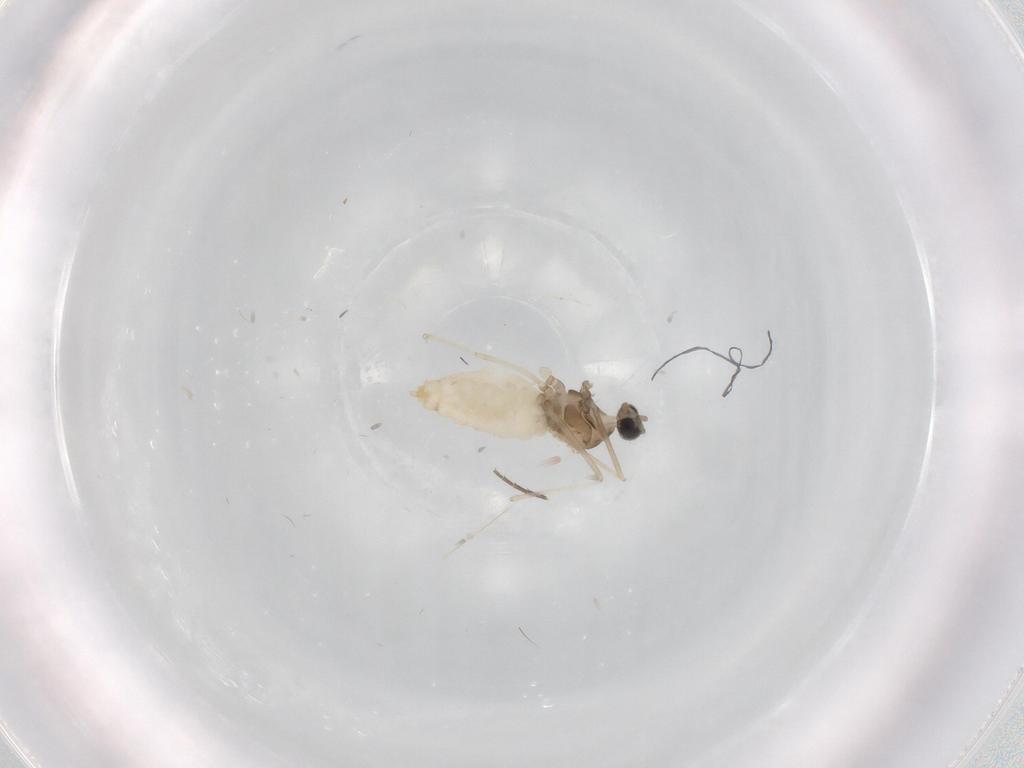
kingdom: Animalia
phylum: Arthropoda
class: Insecta
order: Diptera
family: Cecidomyiidae
